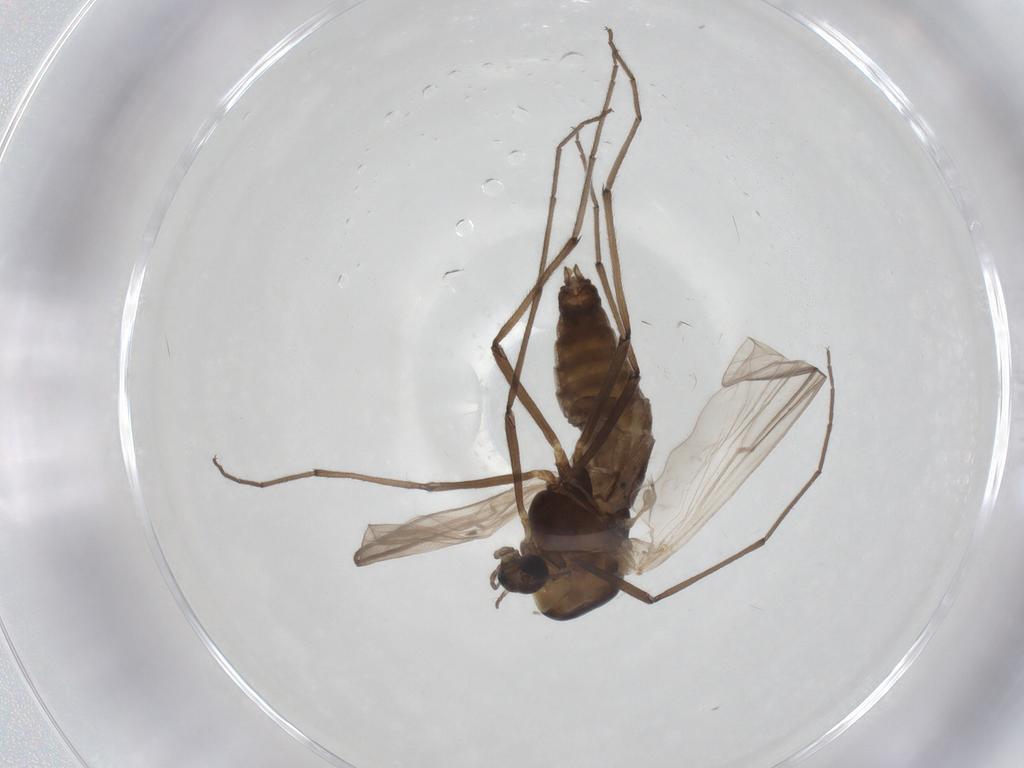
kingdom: Animalia
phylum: Arthropoda
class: Insecta
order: Diptera
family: Chironomidae
